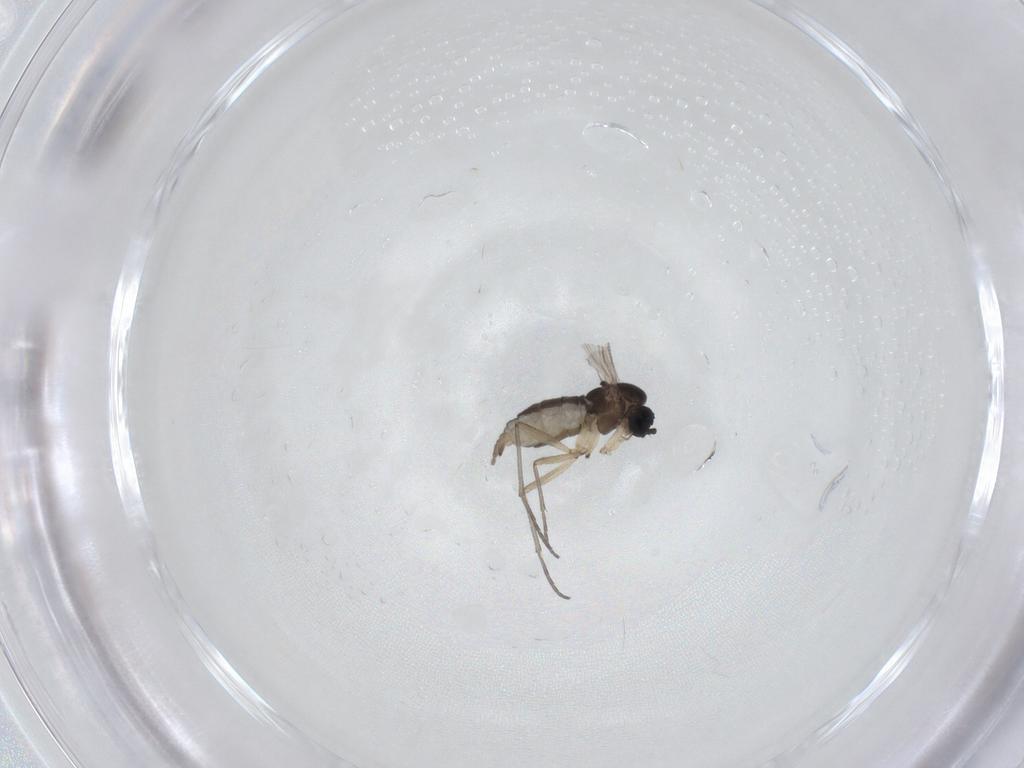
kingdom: Animalia
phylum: Arthropoda
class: Insecta
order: Diptera
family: Sciaridae
